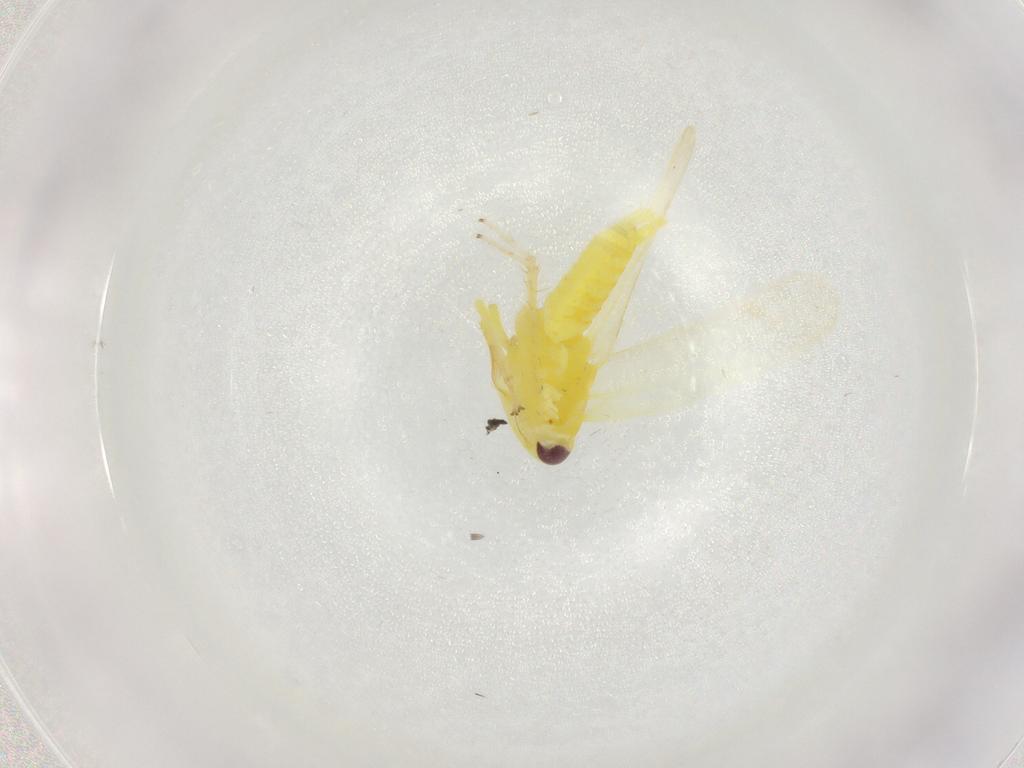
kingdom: Animalia
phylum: Arthropoda
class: Insecta
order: Hemiptera
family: Cicadellidae
